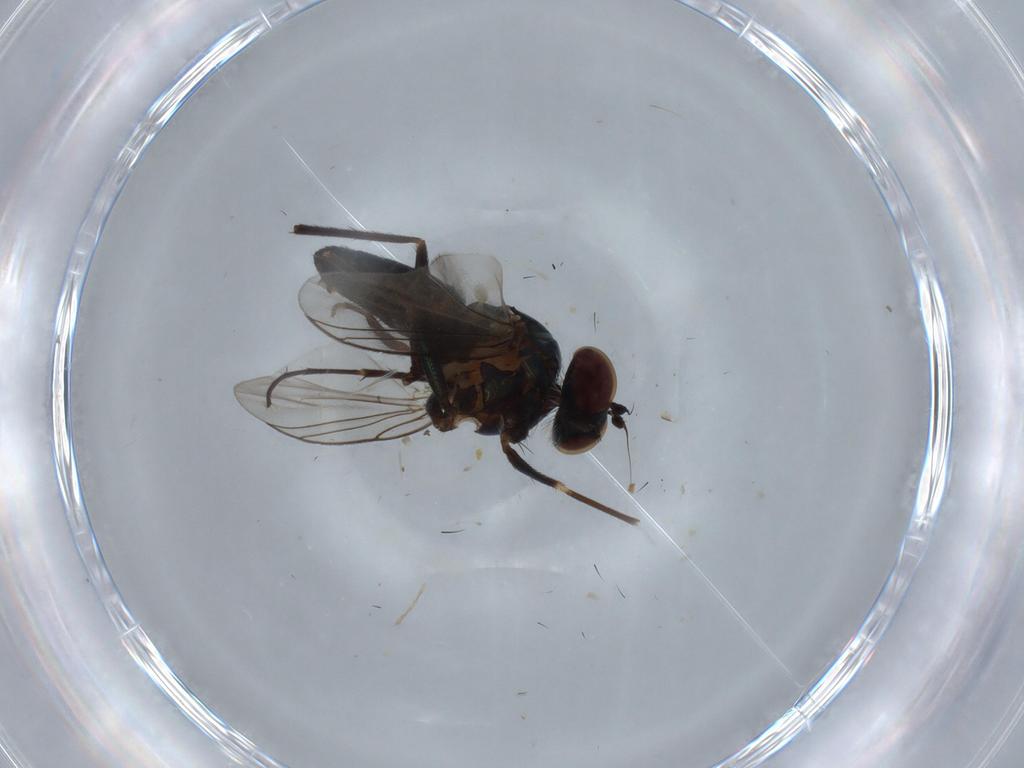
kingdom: Animalia
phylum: Arthropoda
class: Insecta
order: Diptera
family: Dolichopodidae
